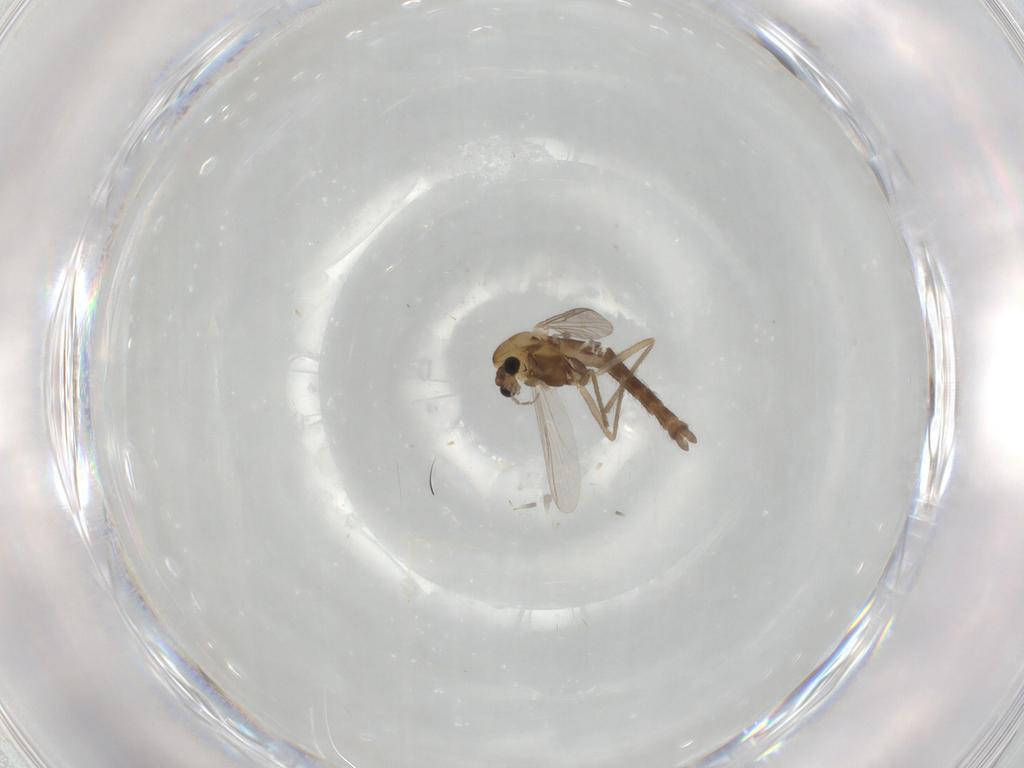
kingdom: Animalia
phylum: Arthropoda
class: Insecta
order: Diptera
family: Chironomidae
